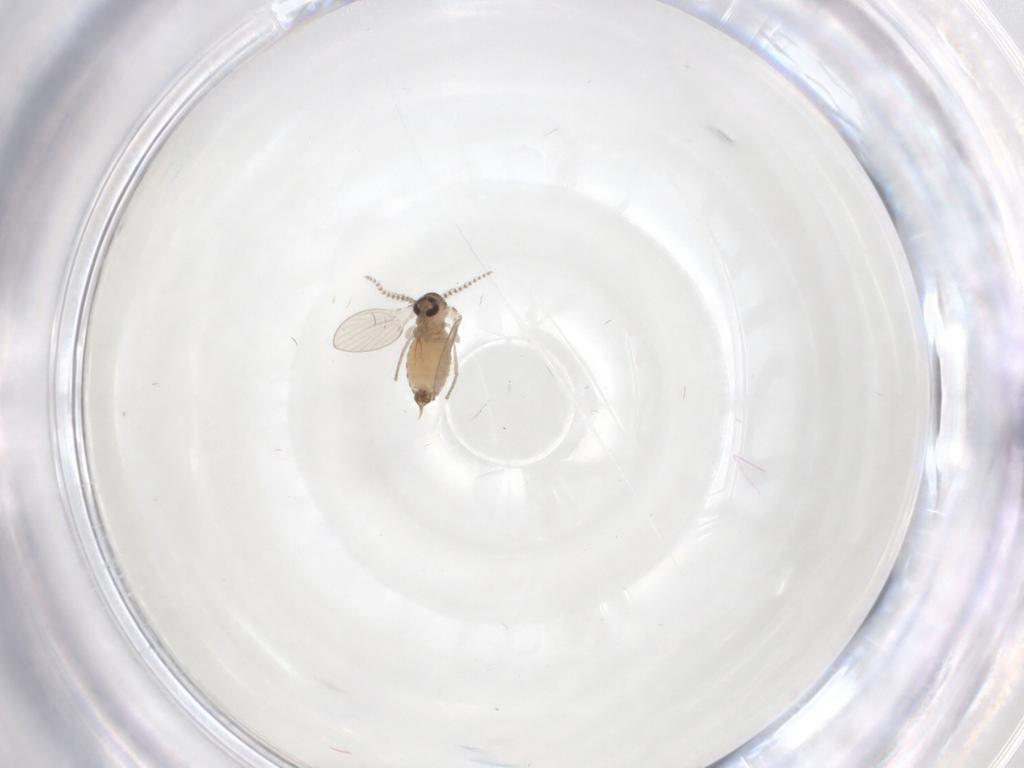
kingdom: Animalia
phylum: Arthropoda
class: Insecta
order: Diptera
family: Psychodidae
